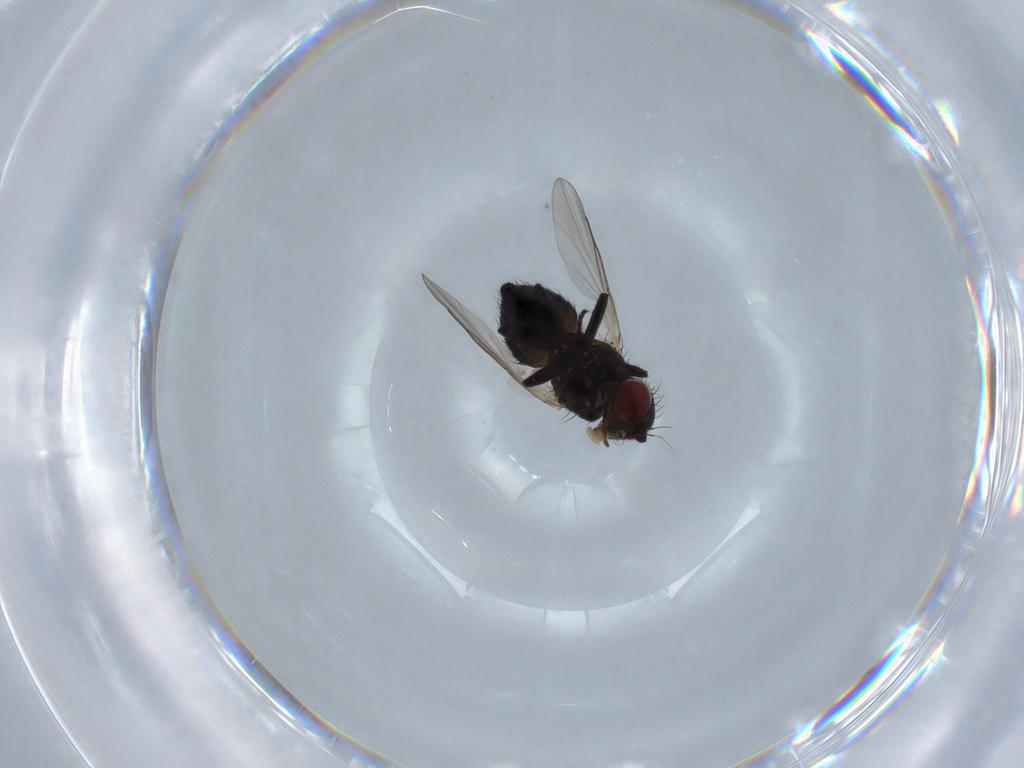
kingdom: Animalia
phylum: Arthropoda
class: Insecta
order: Diptera
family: Agromyzidae
